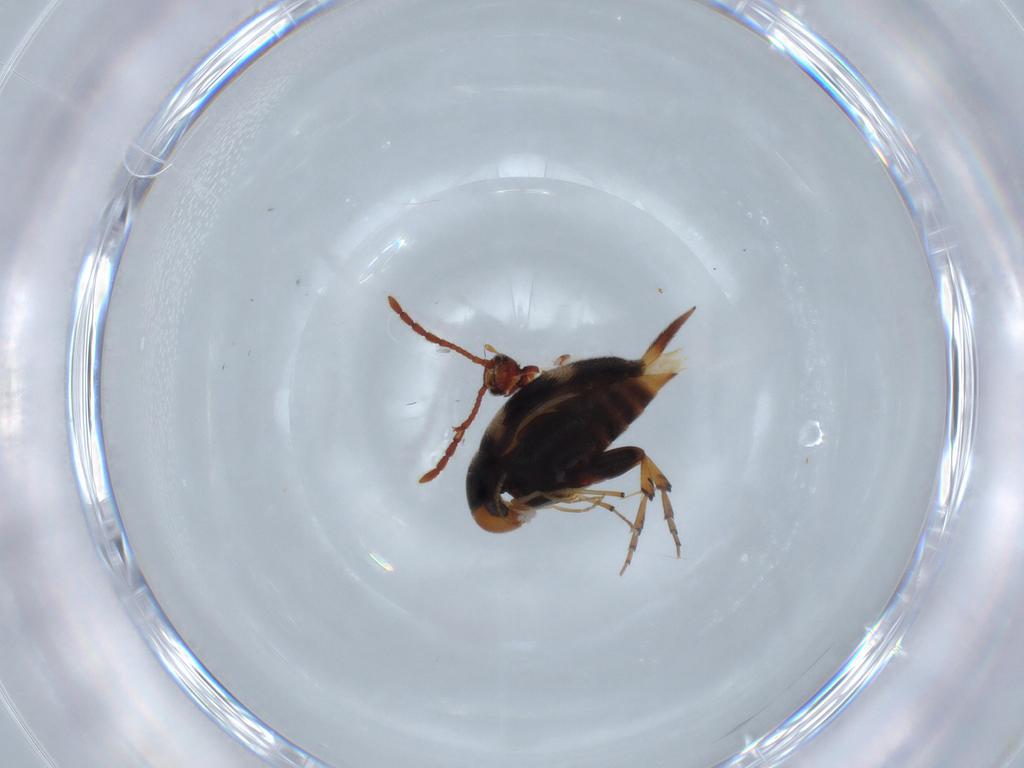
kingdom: Animalia
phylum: Arthropoda
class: Insecta
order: Coleoptera
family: Staphylinidae
